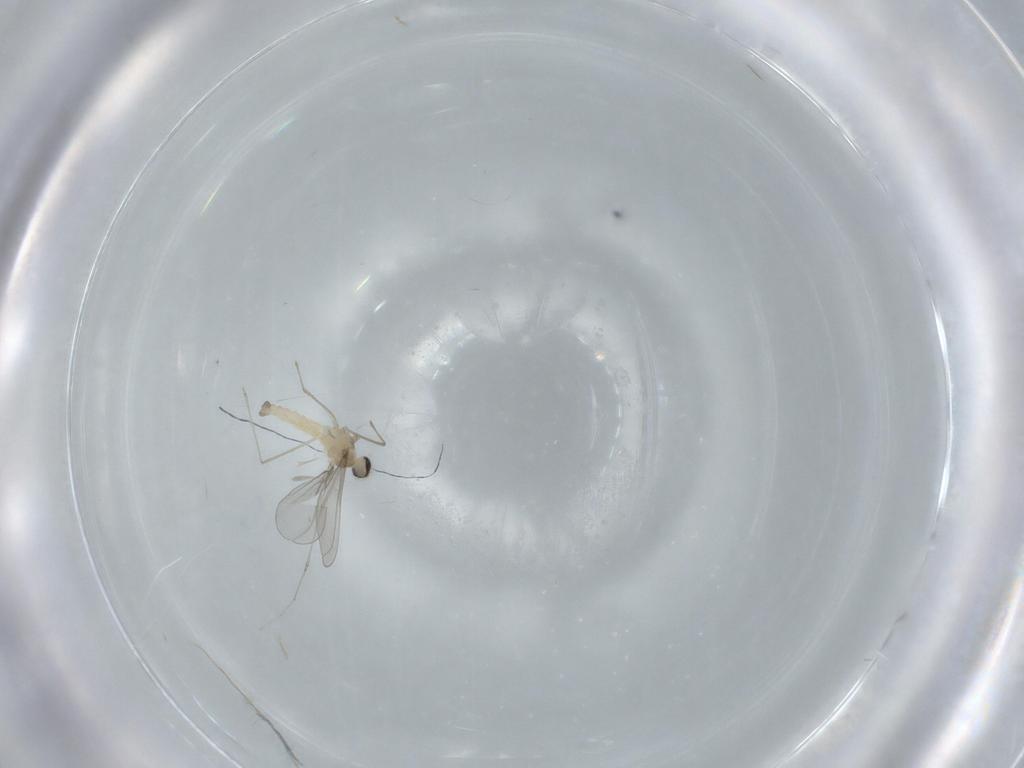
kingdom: Animalia
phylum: Arthropoda
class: Insecta
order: Diptera
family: Cecidomyiidae
